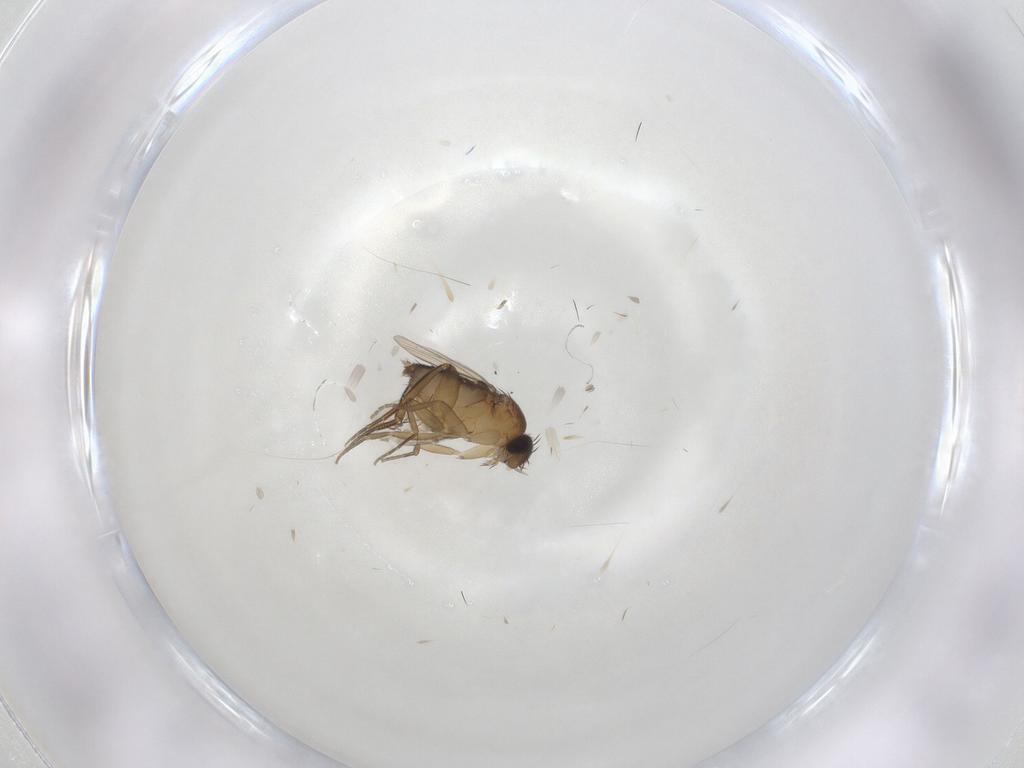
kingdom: Animalia
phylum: Arthropoda
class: Insecta
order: Diptera
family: Phoridae
